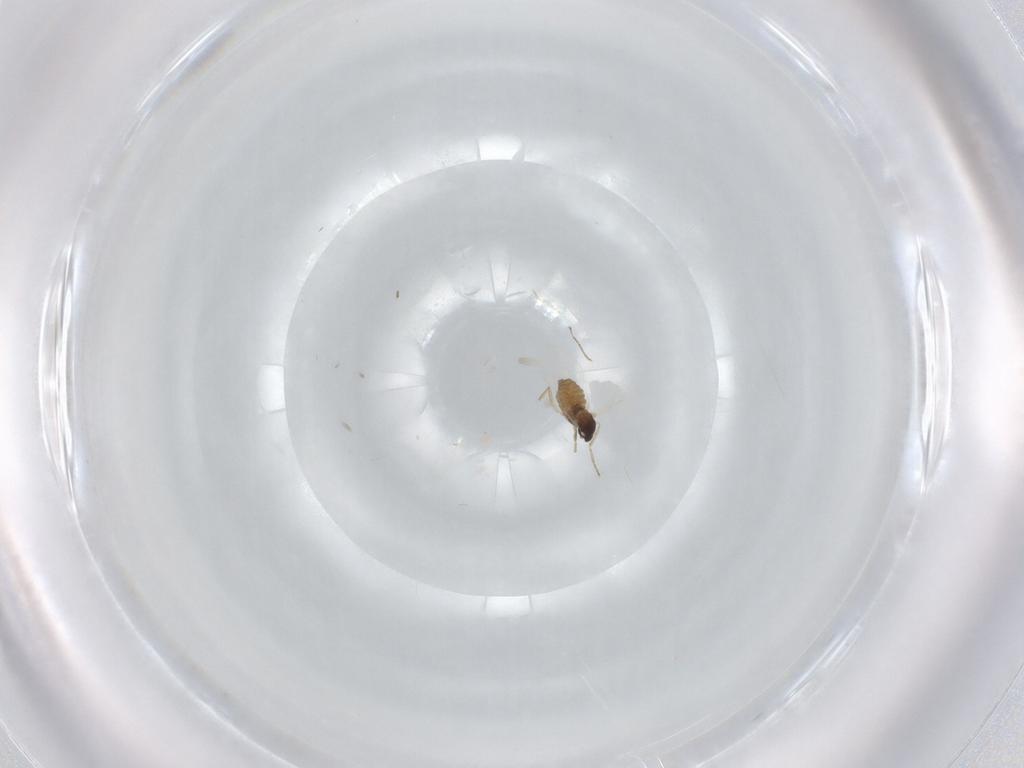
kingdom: Animalia
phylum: Arthropoda
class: Insecta
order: Diptera
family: Cecidomyiidae
